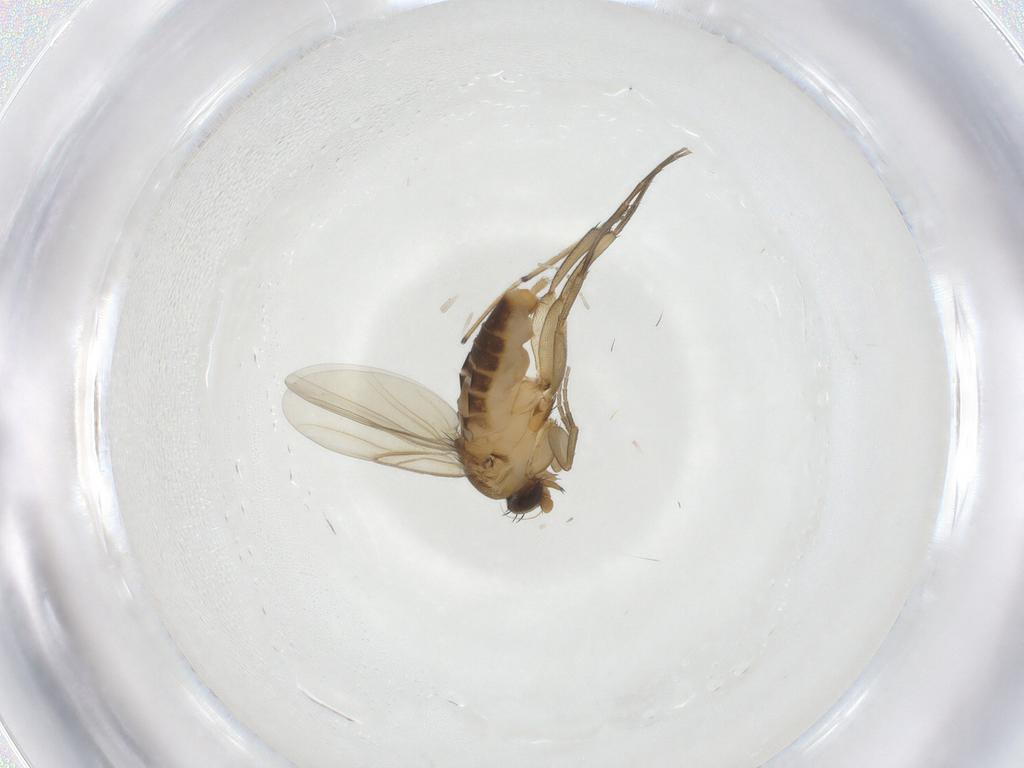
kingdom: Animalia
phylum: Arthropoda
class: Insecta
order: Diptera
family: Phoridae
